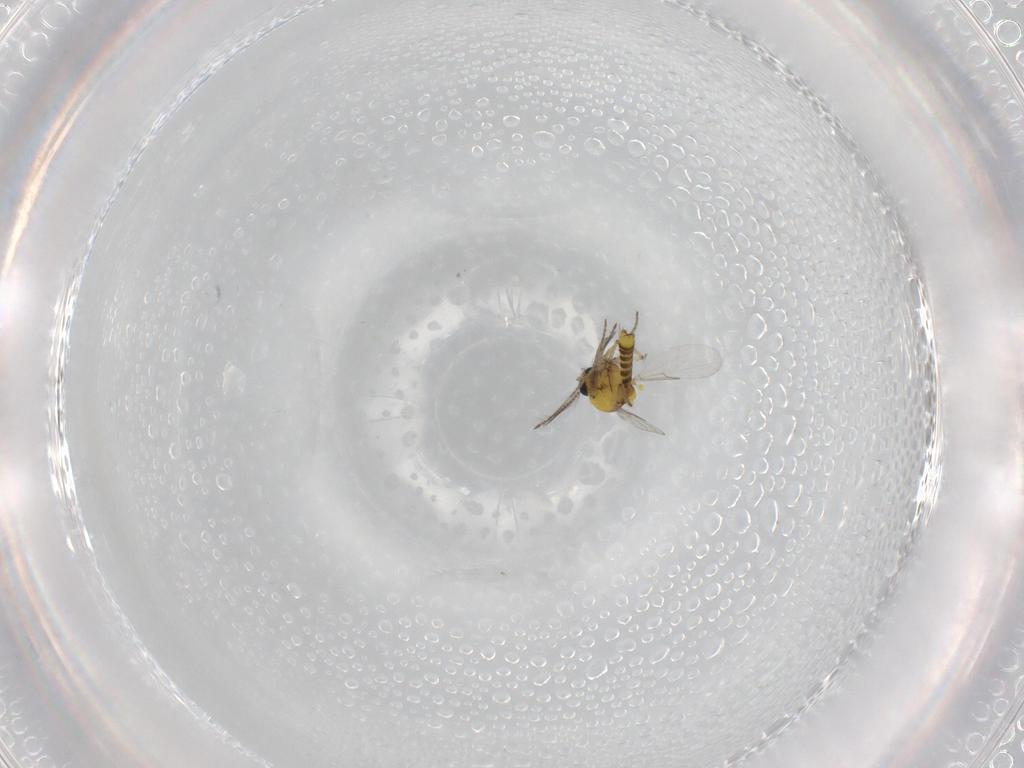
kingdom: Animalia
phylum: Arthropoda
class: Insecta
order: Diptera
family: Ceratopogonidae
